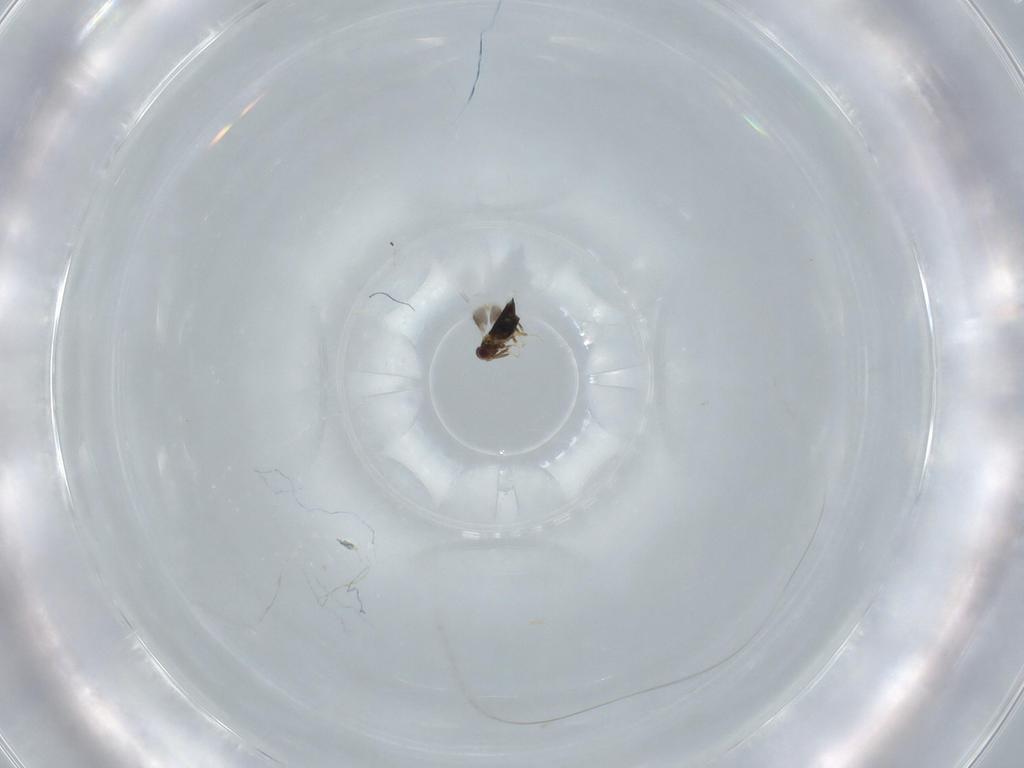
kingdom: Animalia
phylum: Arthropoda
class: Insecta
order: Hymenoptera
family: Scelionidae
